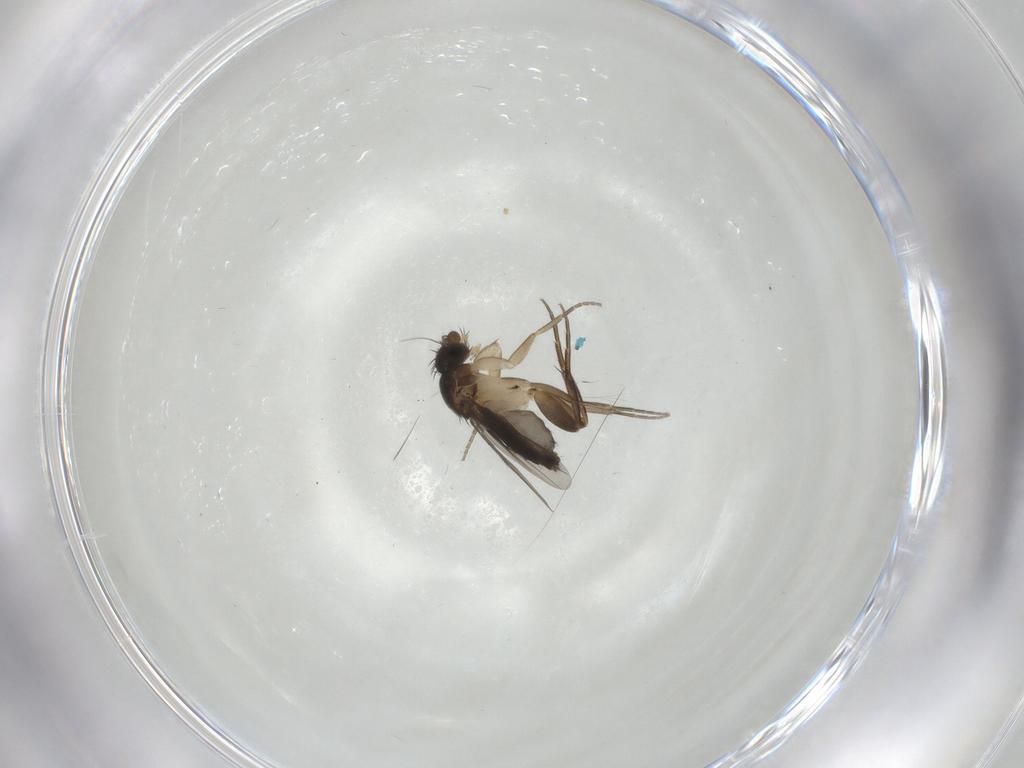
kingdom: Animalia
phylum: Arthropoda
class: Insecta
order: Diptera
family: Phoridae
